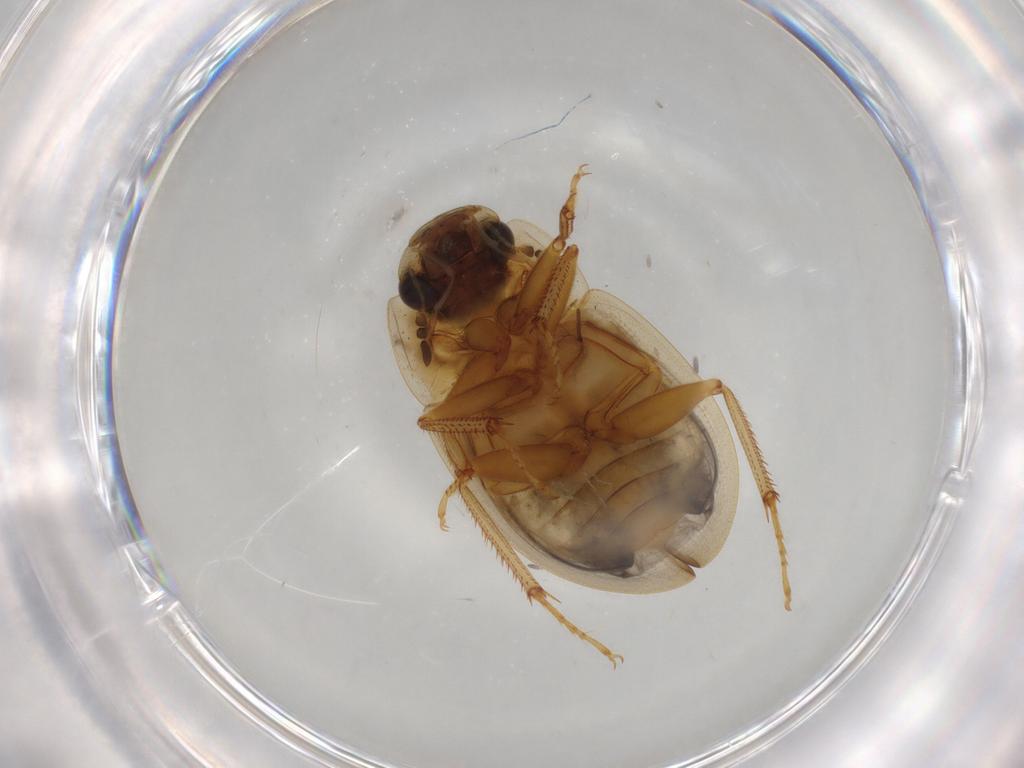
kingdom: Animalia
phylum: Arthropoda
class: Insecta
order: Coleoptera
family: Hydrophilidae
